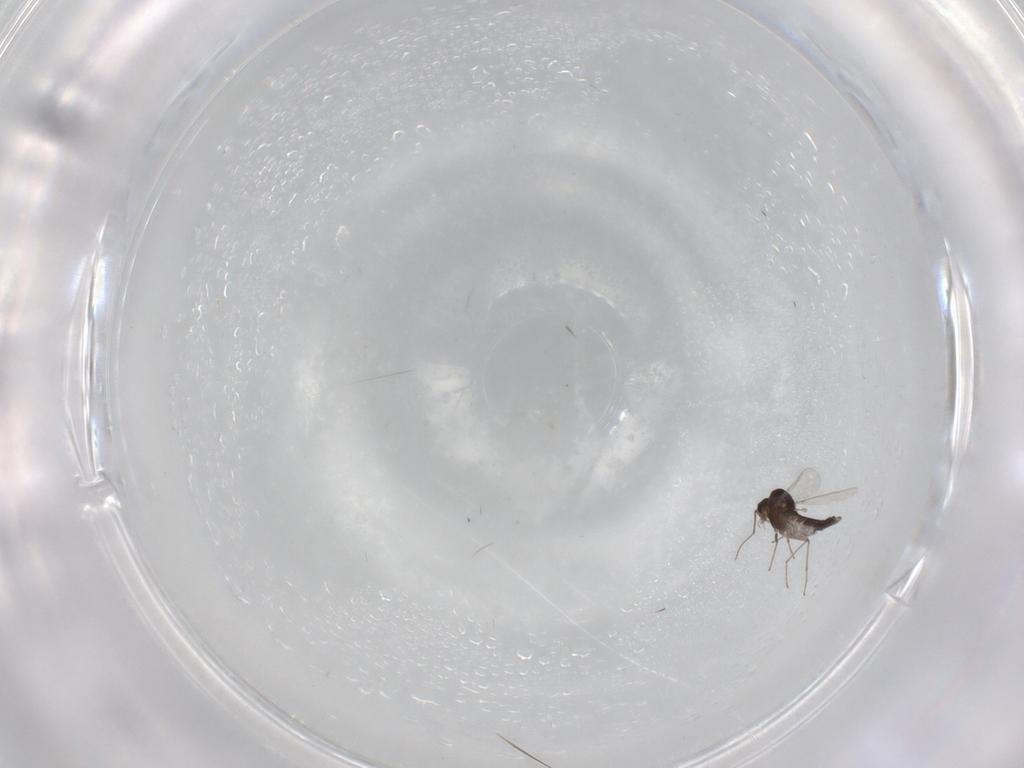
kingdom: Animalia
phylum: Arthropoda
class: Insecta
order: Diptera
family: Chironomidae
